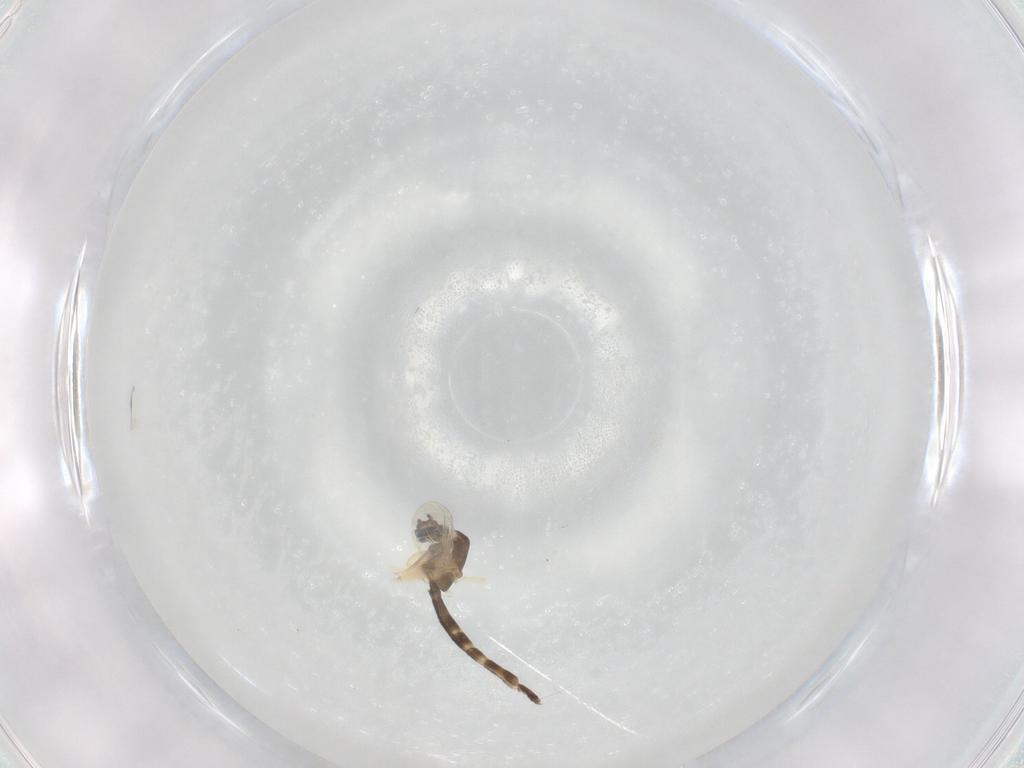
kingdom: Animalia
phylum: Arthropoda
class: Insecta
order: Diptera
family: Chironomidae
